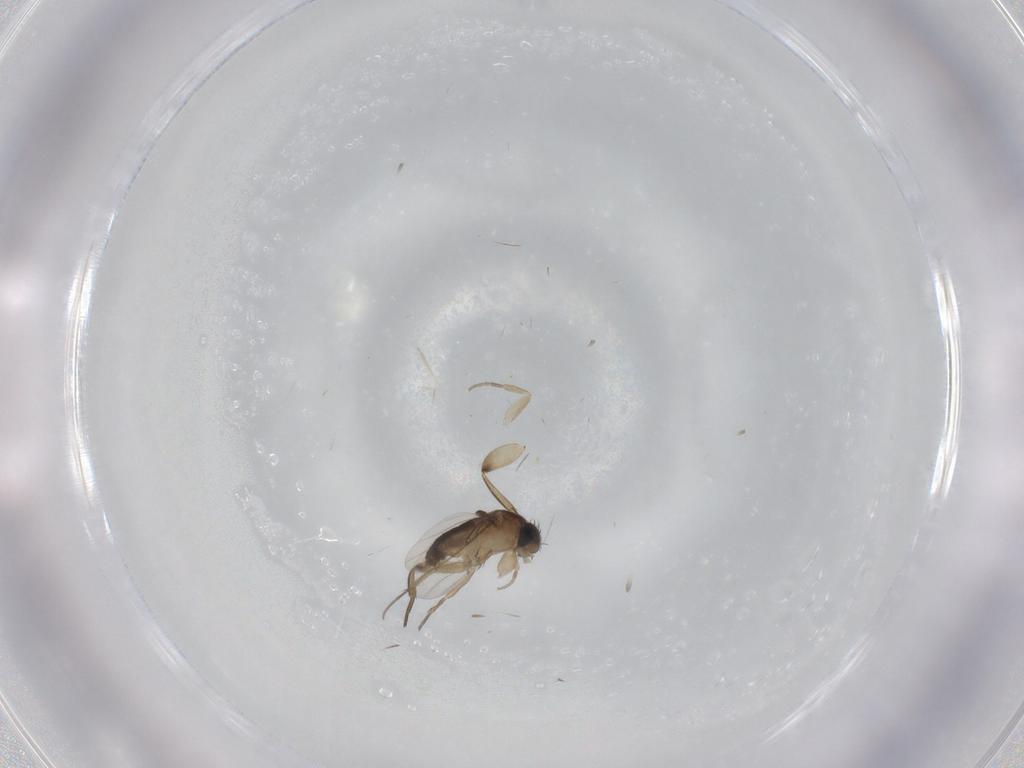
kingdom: Animalia
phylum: Arthropoda
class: Insecta
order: Diptera
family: Phoridae
